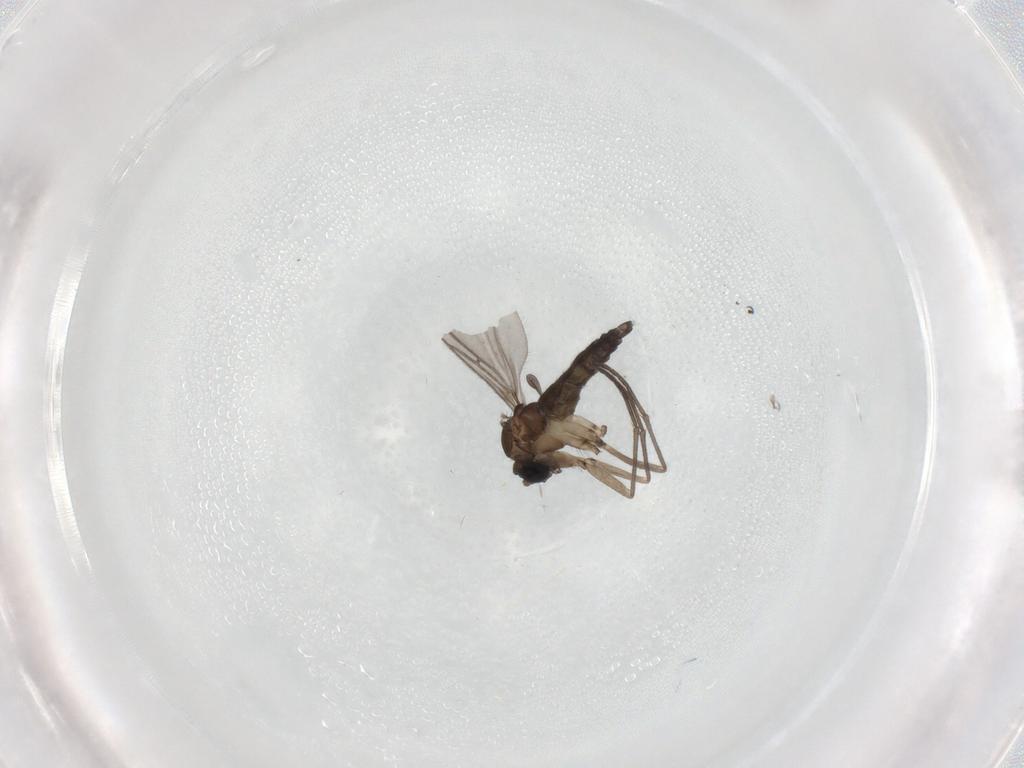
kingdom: Animalia
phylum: Arthropoda
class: Insecta
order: Diptera
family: Sciaridae
